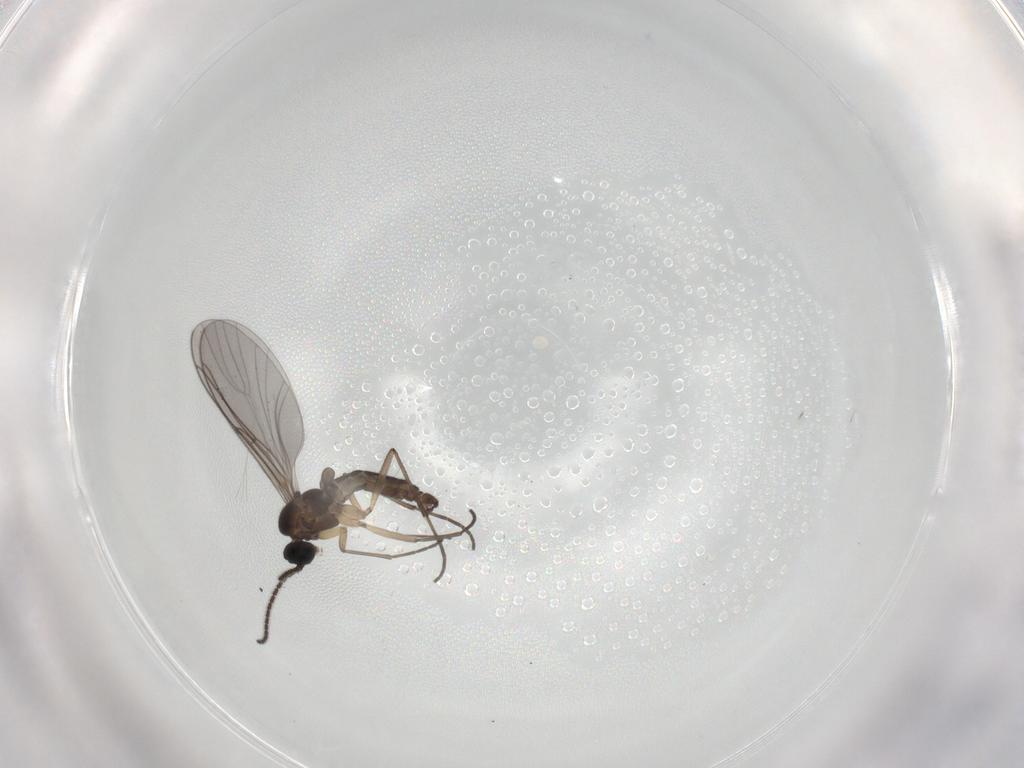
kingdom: Animalia
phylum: Arthropoda
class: Insecta
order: Diptera
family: Sciaridae
